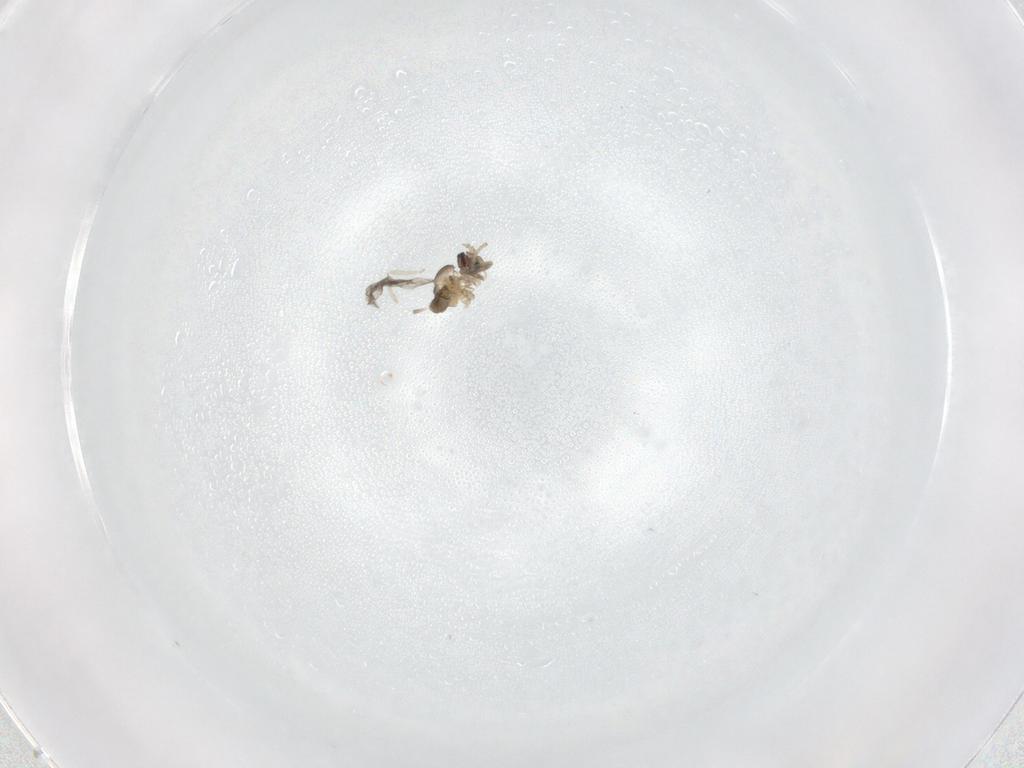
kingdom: Animalia
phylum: Arthropoda
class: Insecta
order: Diptera
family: Cecidomyiidae
